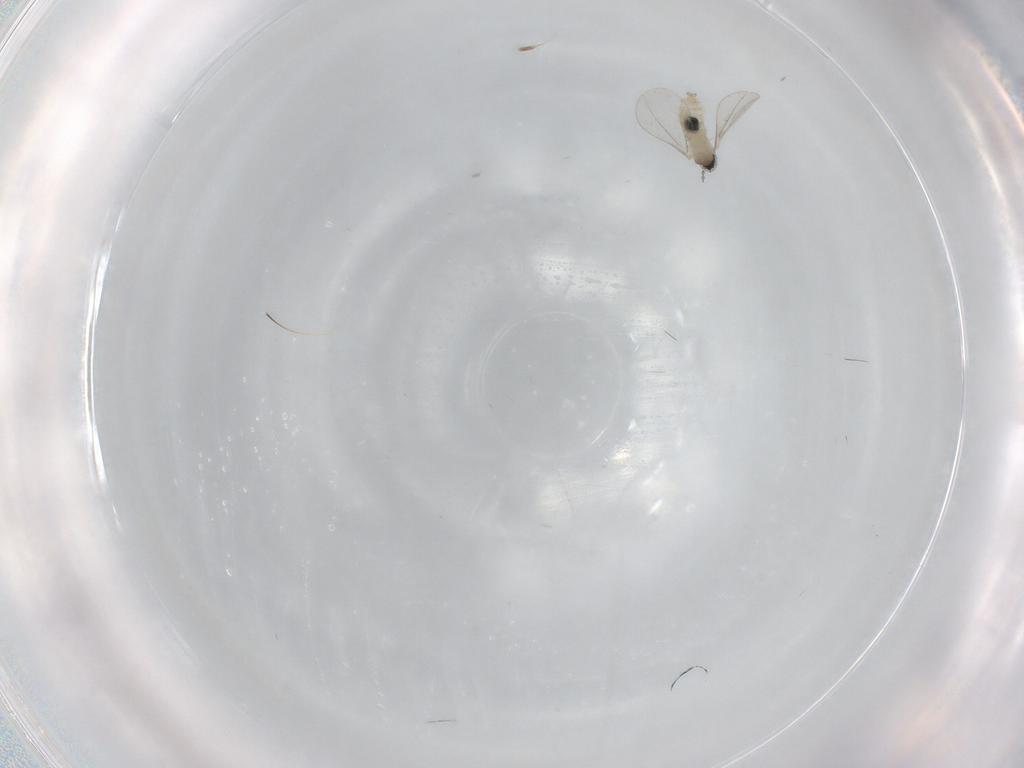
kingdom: Animalia
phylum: Arthropoda
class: Insecta
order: Diptera
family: Cecidomyiidae
